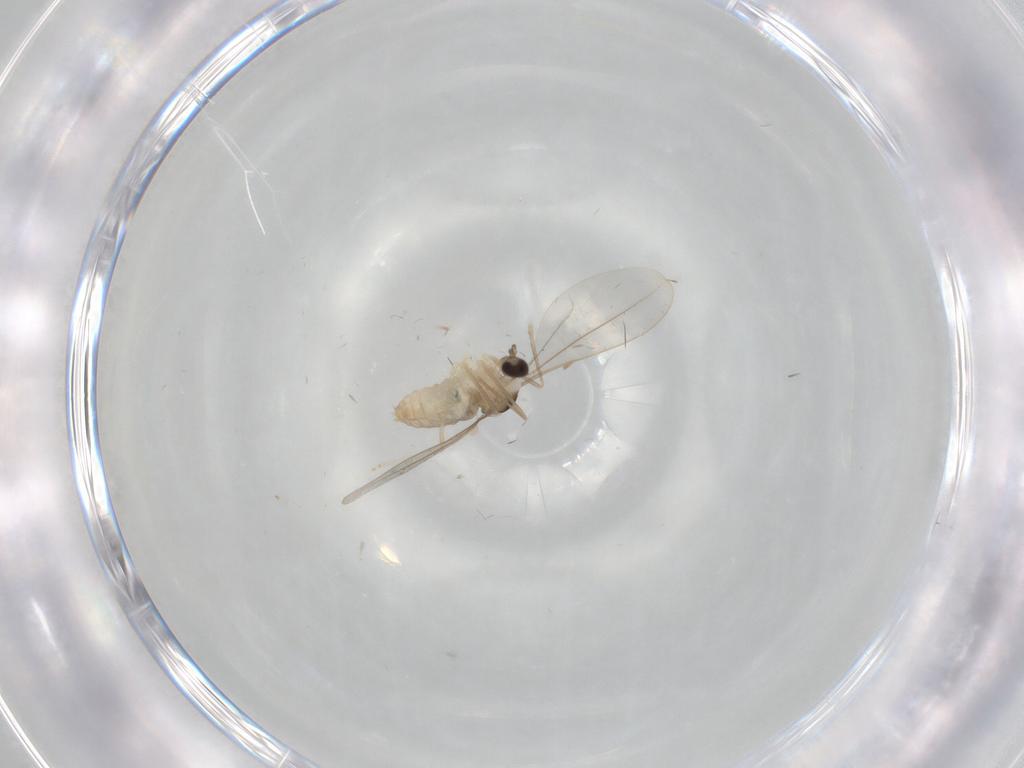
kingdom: Animalia
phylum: Arthropoda
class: Insecta
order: Diptera
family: Cecidomyiidae
